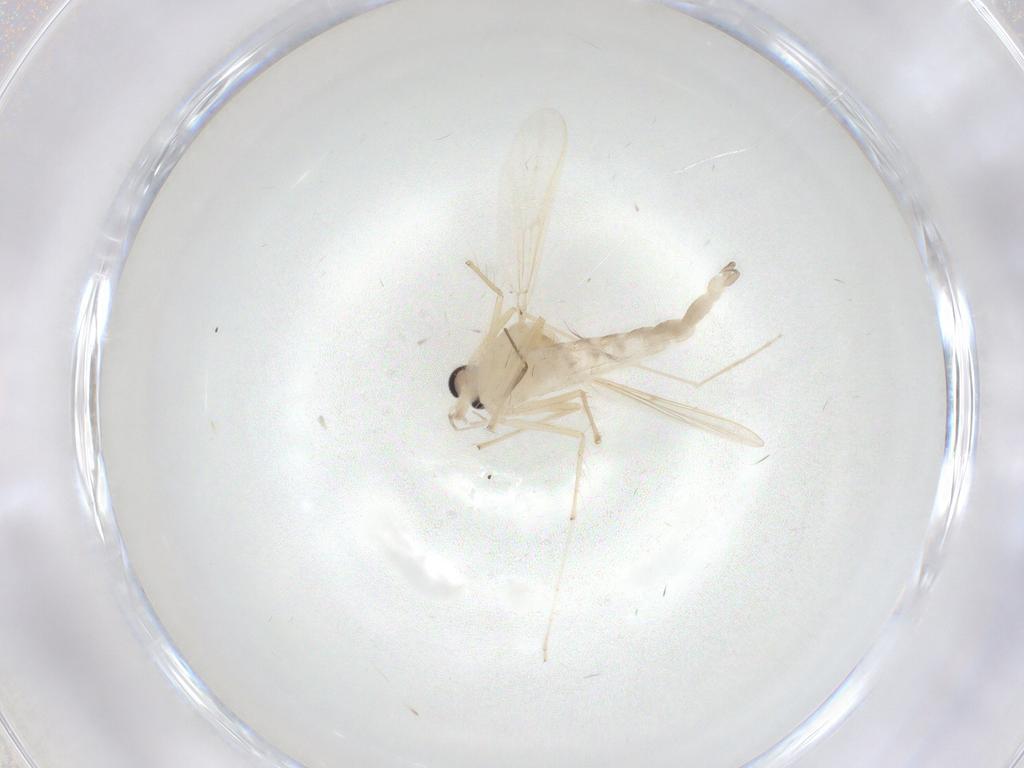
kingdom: Animalia
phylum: Arthropoda
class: Insecta
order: Diptera
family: Chironomidae
